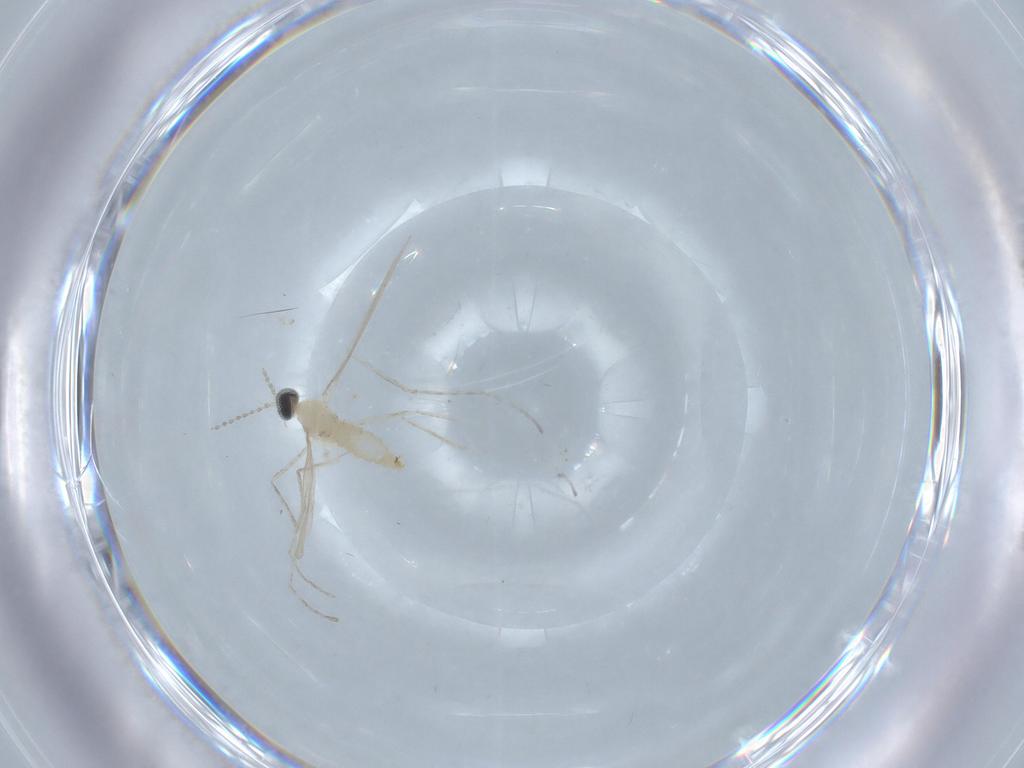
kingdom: Animalia
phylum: Arthropoda
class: Insecta
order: Diptera
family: Cecidomyiidae
